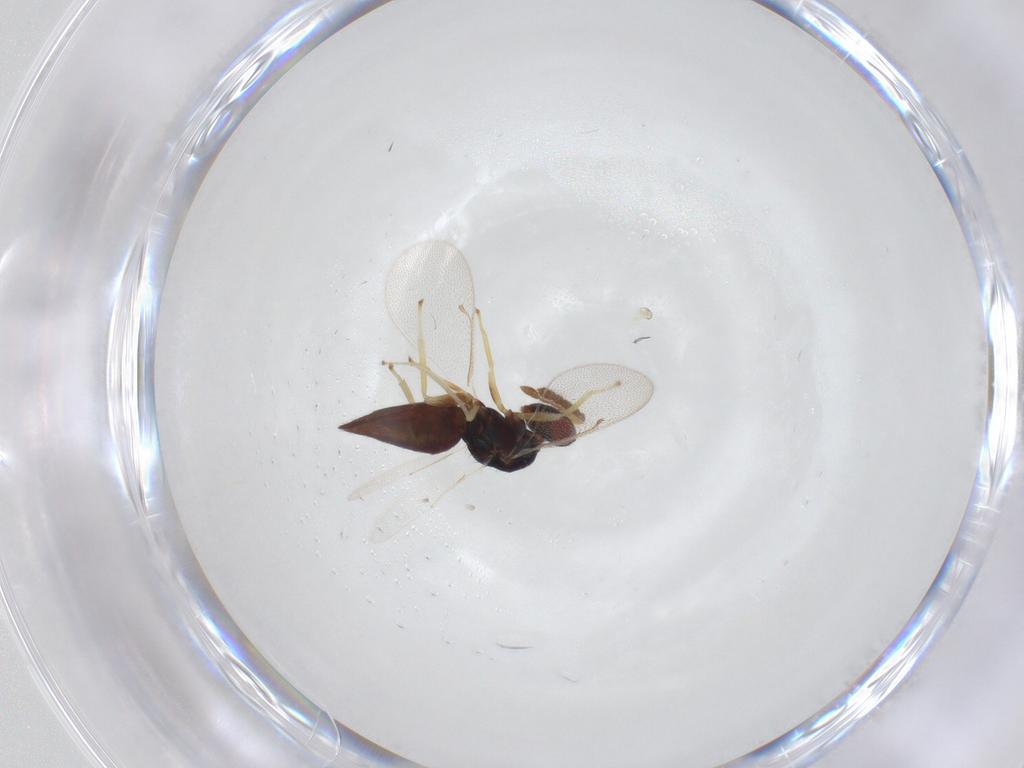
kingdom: Animalia
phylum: Arthropoda
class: Insecta
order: Hymenoptera
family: Eulophidae
